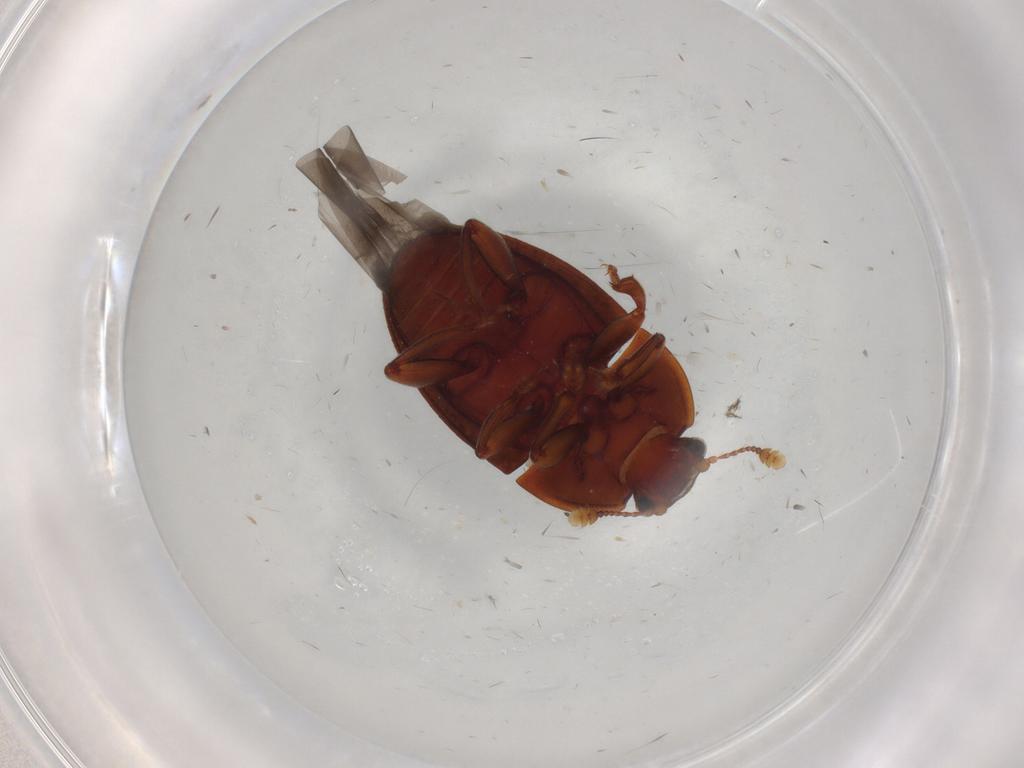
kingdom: Animalia
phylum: Arthropoda
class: Insecta
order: Coleoptera
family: Nitidulidae
